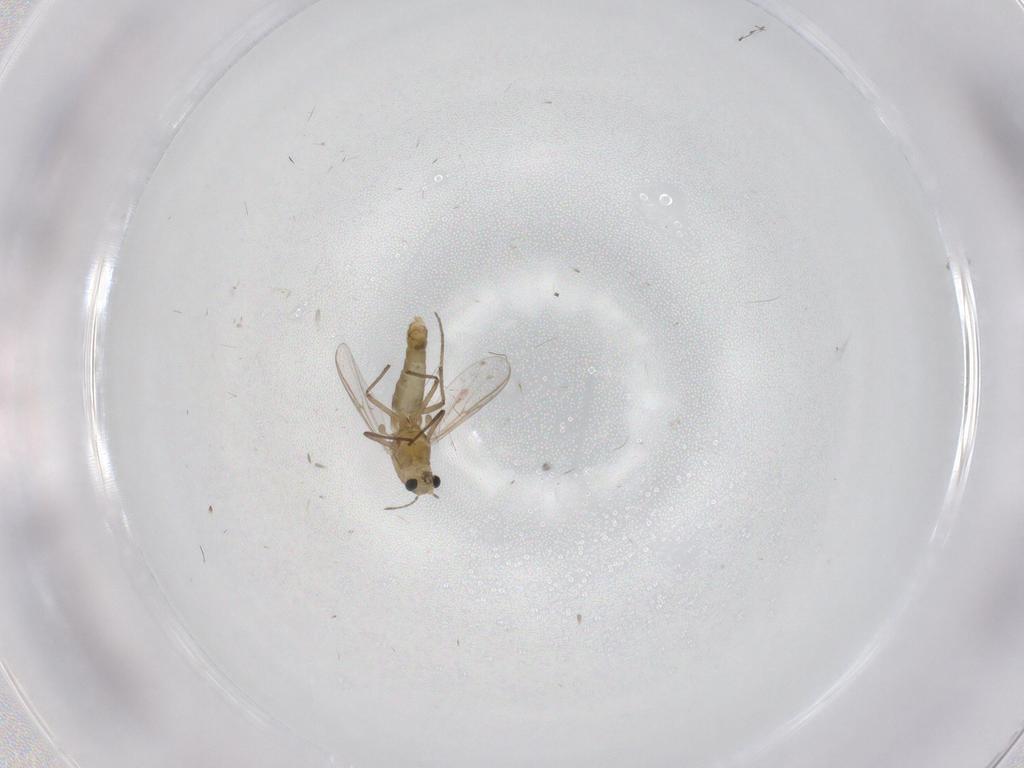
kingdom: Animalia
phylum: Arthropoda
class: Insecta
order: Diptera
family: Chironomidae
